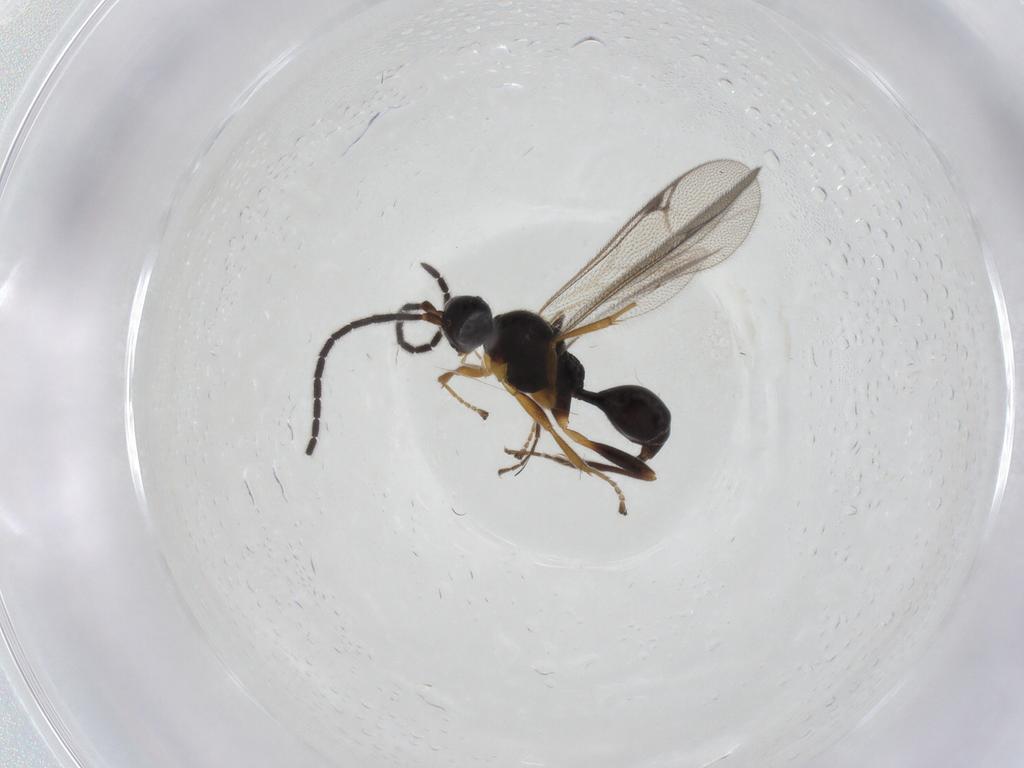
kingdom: Animalia
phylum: Arthropoda
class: Insecta
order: Hymenoptera
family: Proctotrupidae
